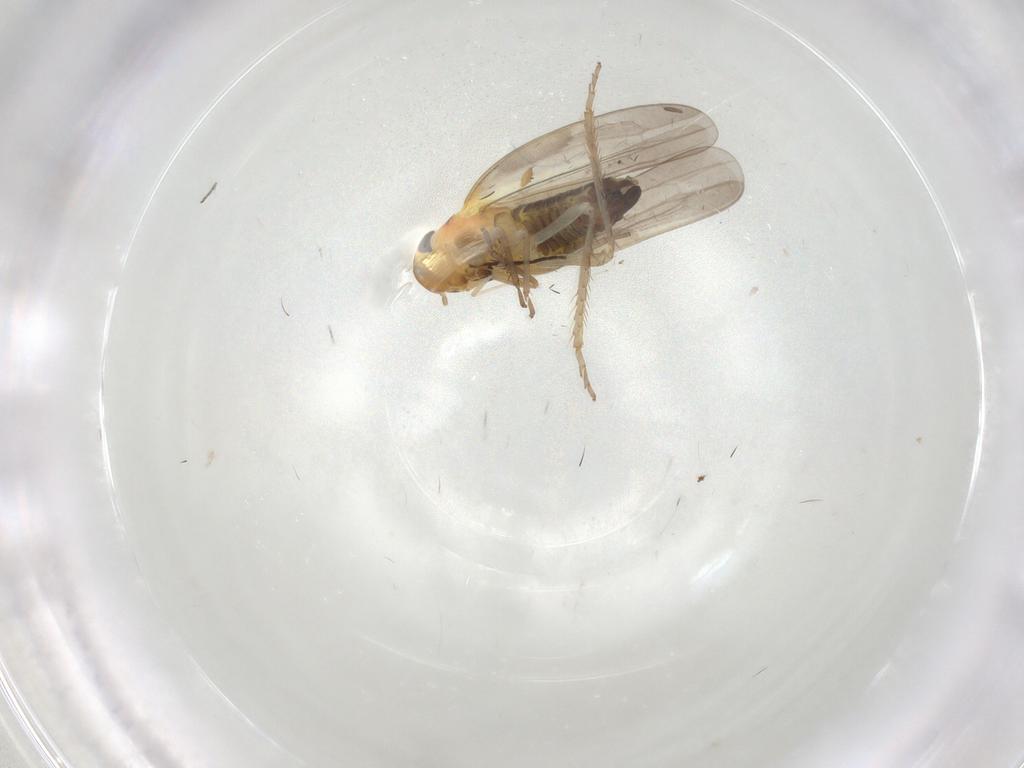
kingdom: Animalia
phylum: Arthropoda
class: Insecta
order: Hemiptera
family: Cicadellidae
